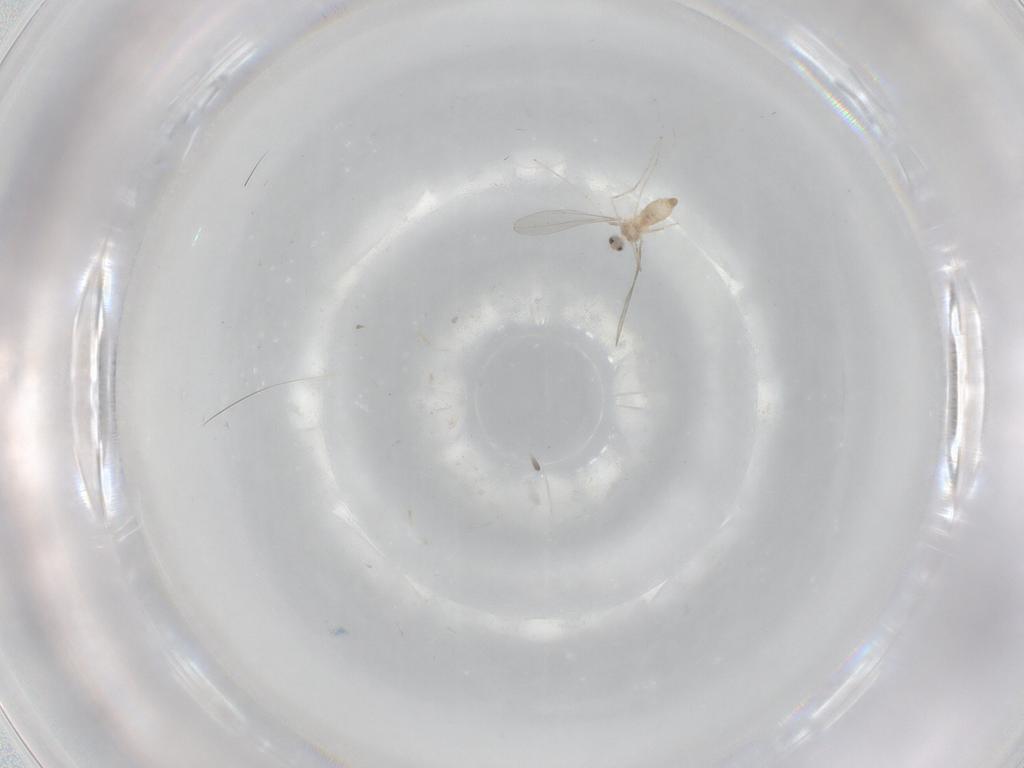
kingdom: Animalia
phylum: Arthropoda
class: Insecta
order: Diptera
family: Cecidomyiidae
